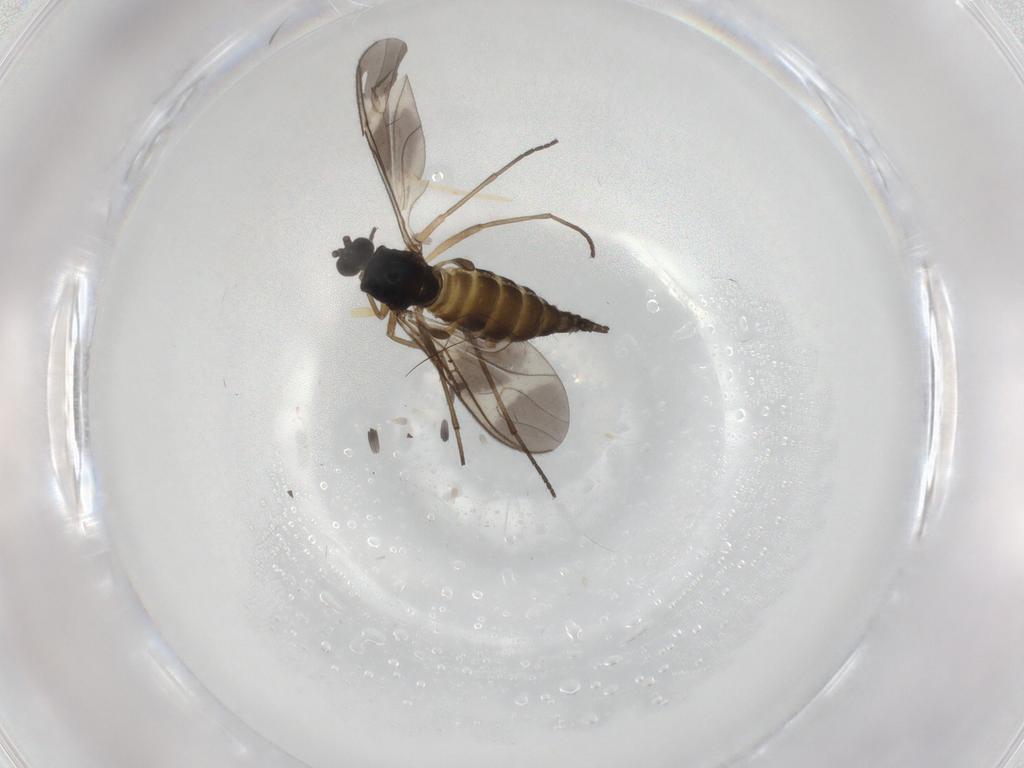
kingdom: Animalia
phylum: Arthropoda
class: Insecta
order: Diptera
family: Sciaridae
